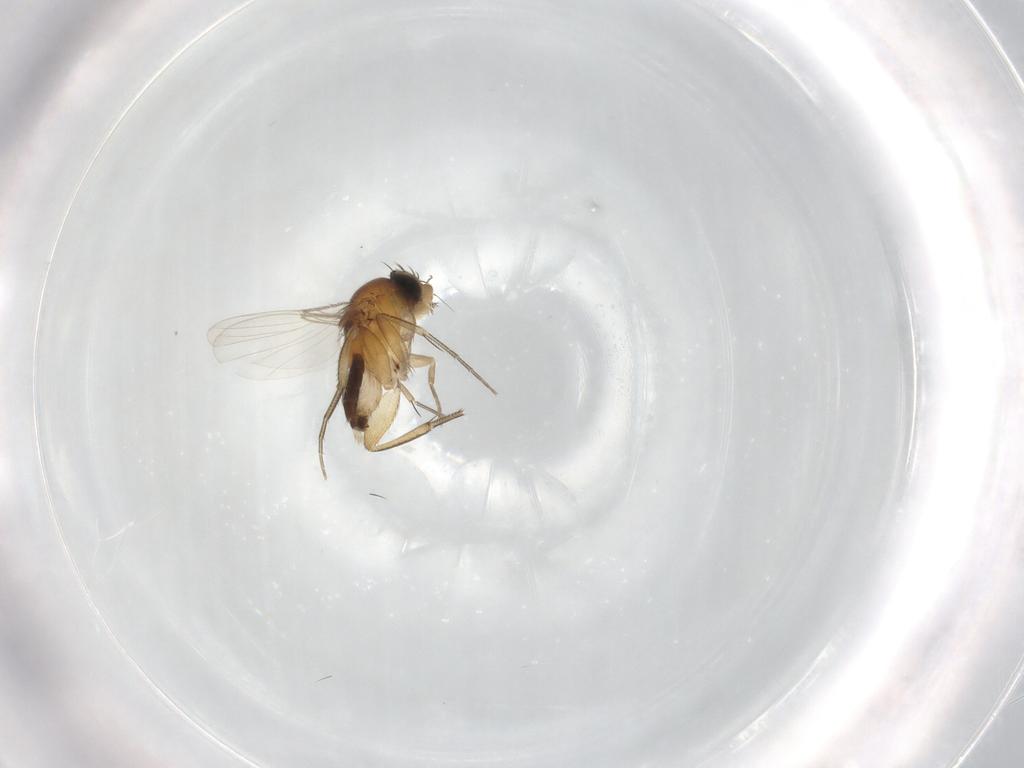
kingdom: Animalia
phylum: Arthropoda
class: Insecta
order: Diptera
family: Phoridae
